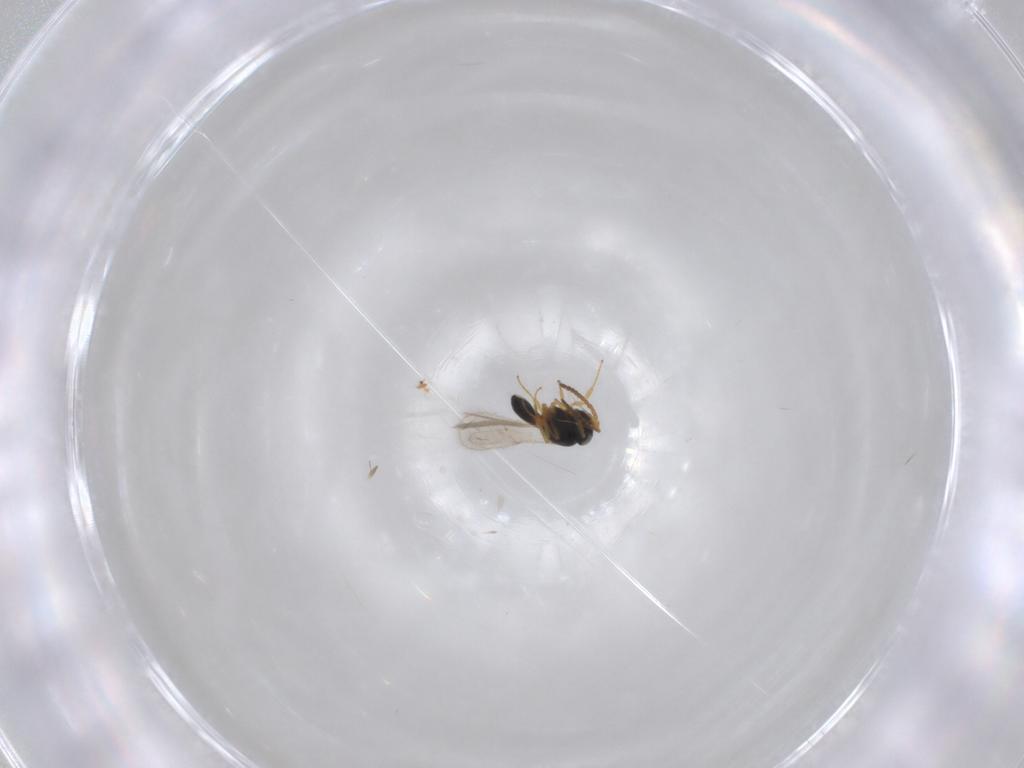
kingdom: Animalia
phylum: Arthropoda
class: Insecta
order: Hymenoptera
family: Scelionidae
